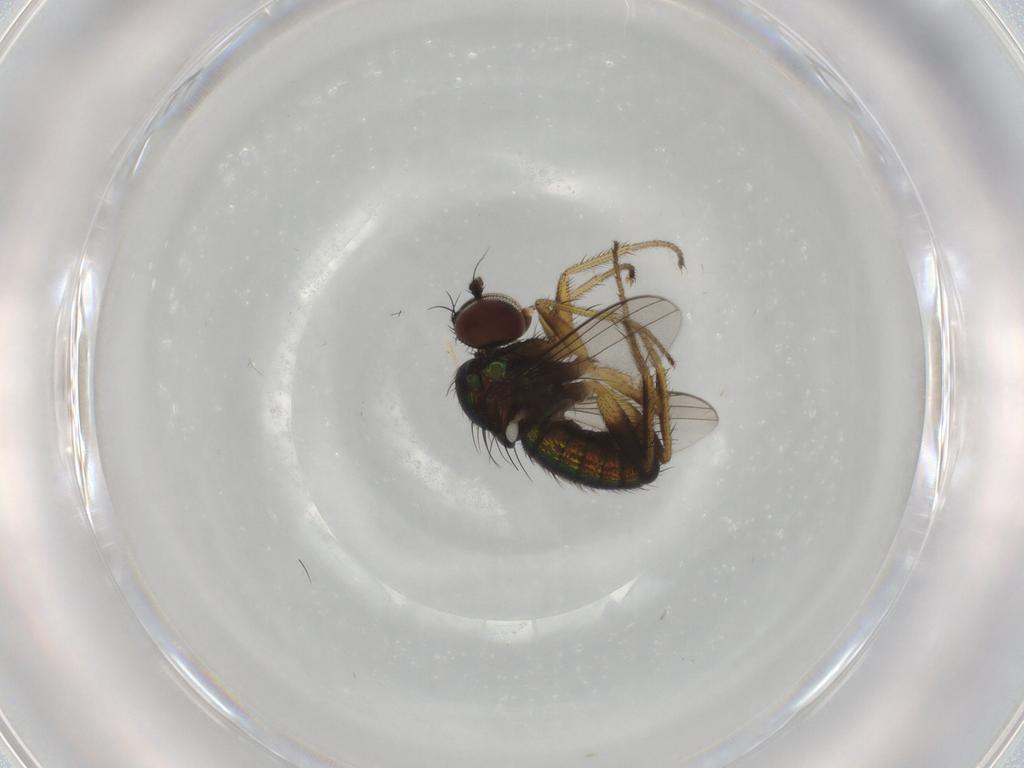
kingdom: Animalia
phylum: Arthropoda
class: Insecta
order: Diptera
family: Dolichopodidae
